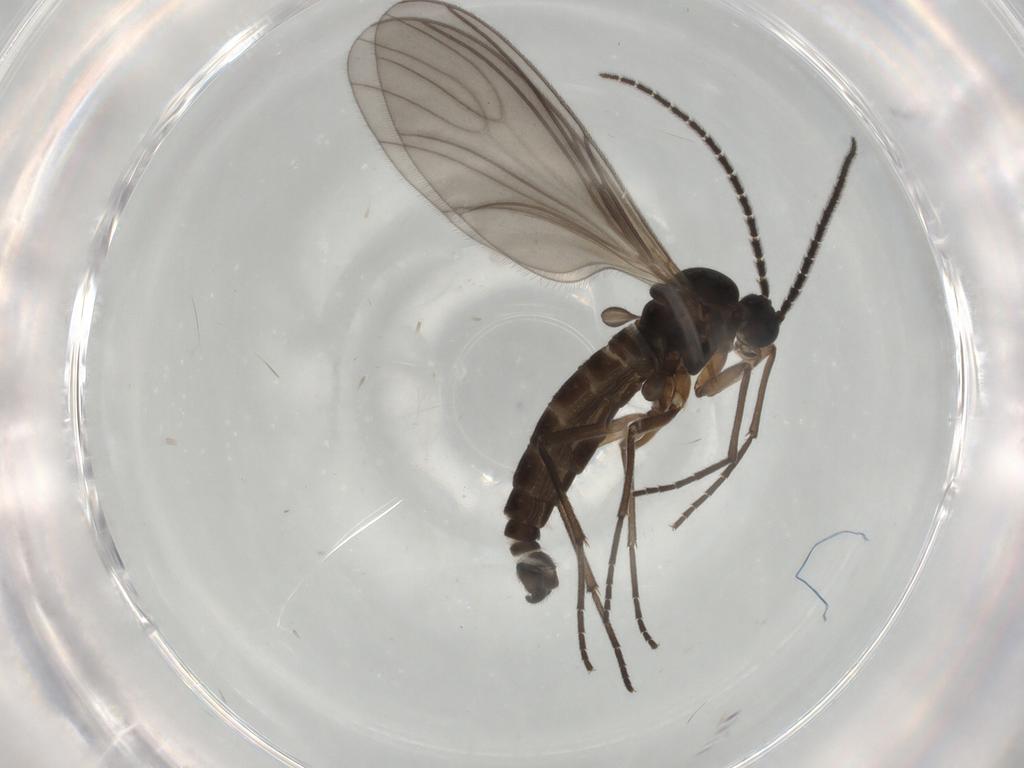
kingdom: Animalia
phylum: Arthropoda
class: Insecta
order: Diptera
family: Sciaridae
